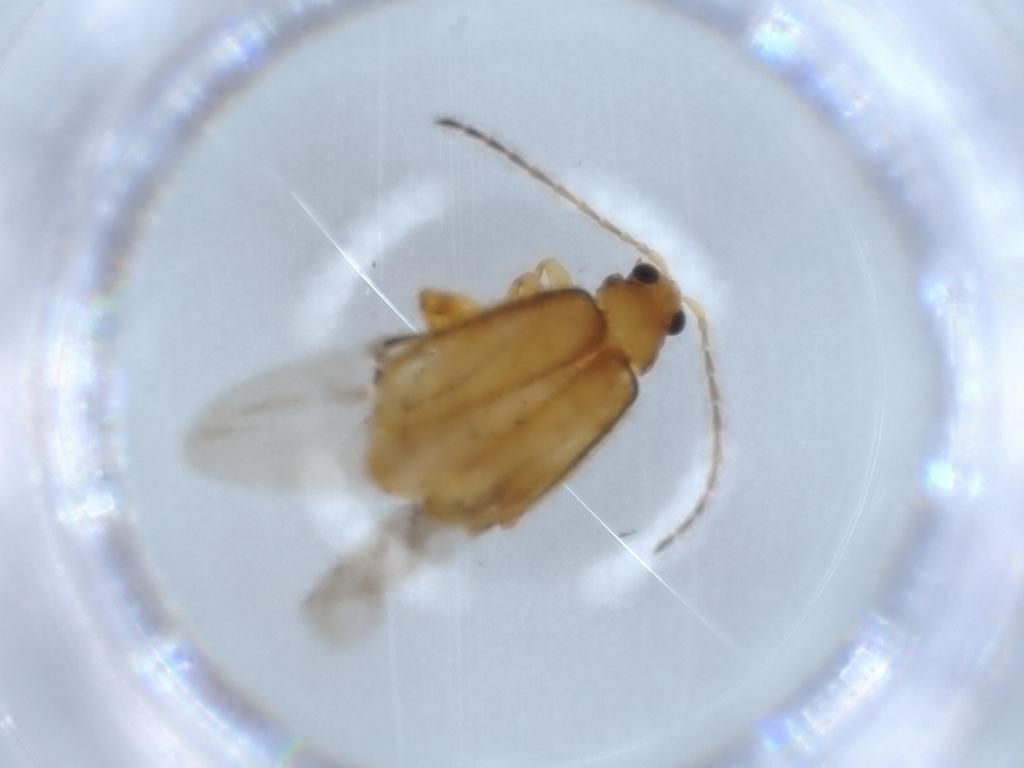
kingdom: Animalia
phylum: Arthropoda
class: Insecta
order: Coleoptera
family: Chrysomelidae
